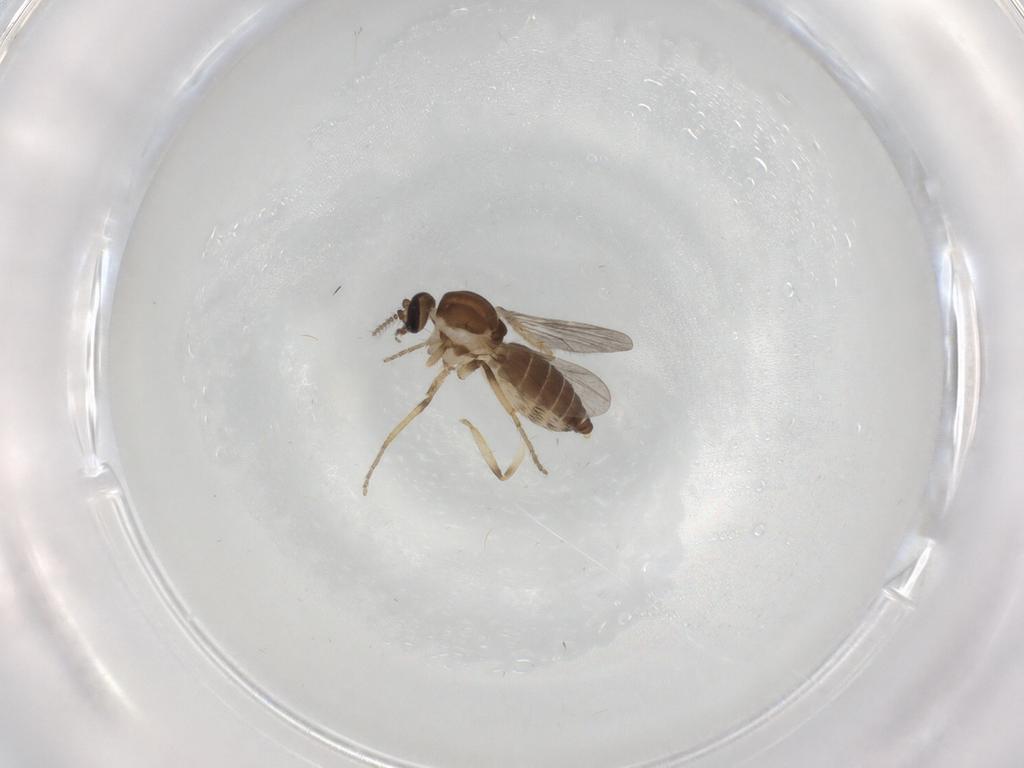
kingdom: Animalia
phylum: Arthropoda
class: Insecta
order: Diptera
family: Ceratopogonidae
